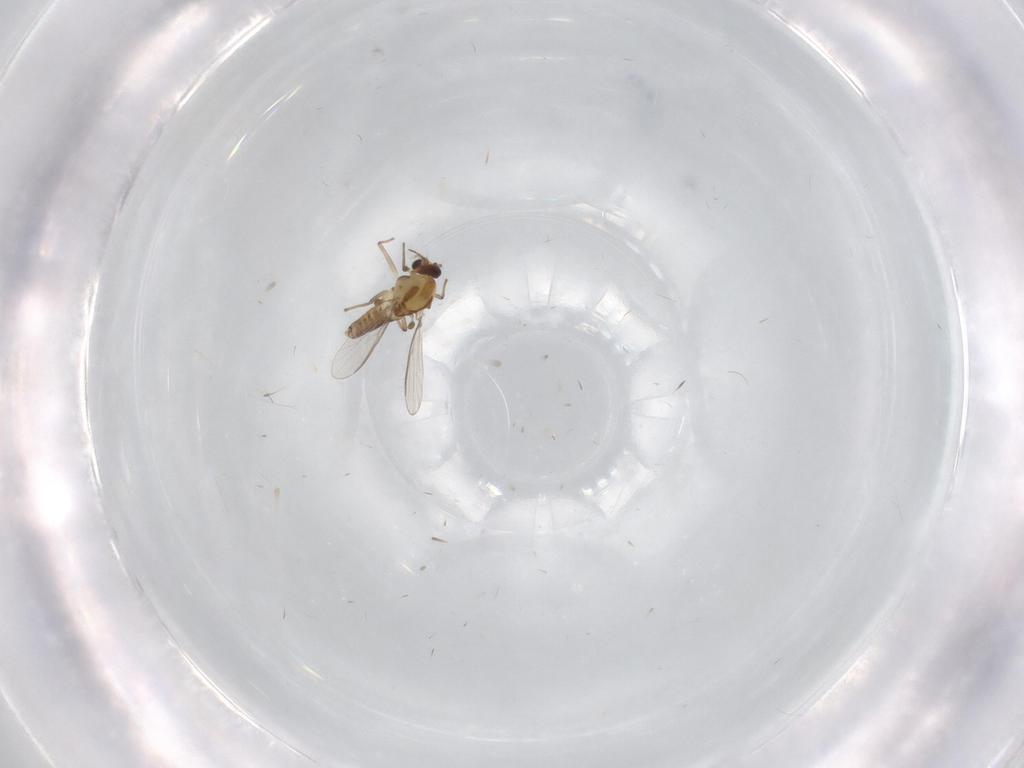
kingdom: Animalia
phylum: Arthropoda
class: Insecta
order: Diptera
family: Chironomidae
